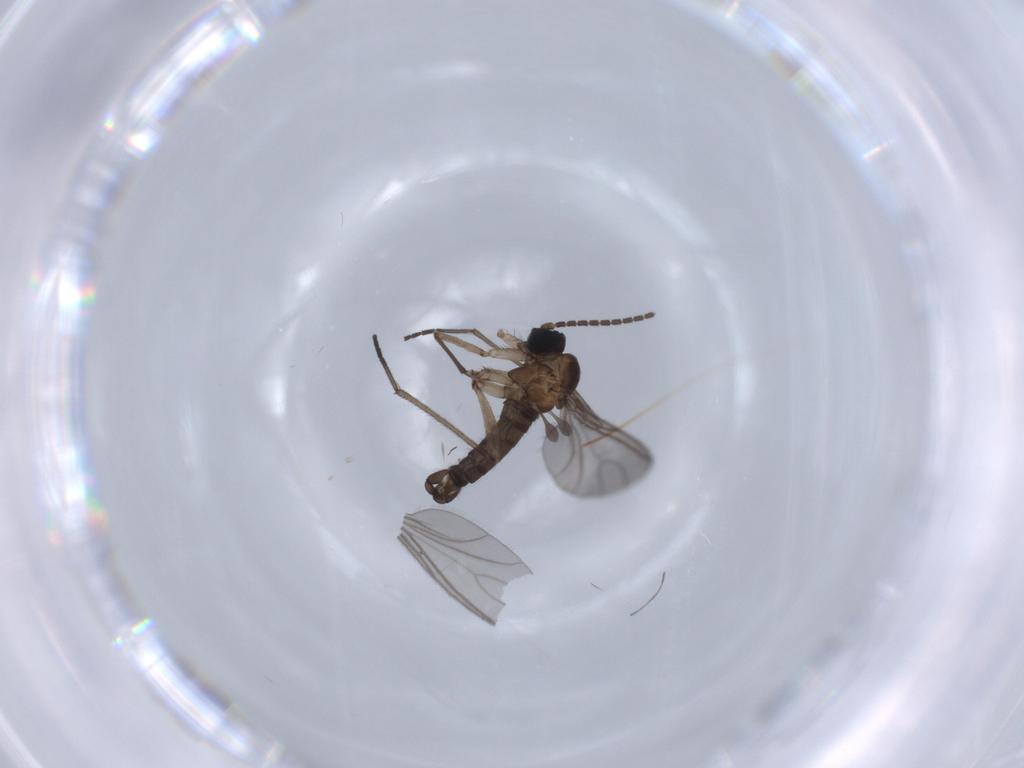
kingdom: Animalia
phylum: Arthropoda
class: Insecta
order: Diptera
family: Sciaridae
